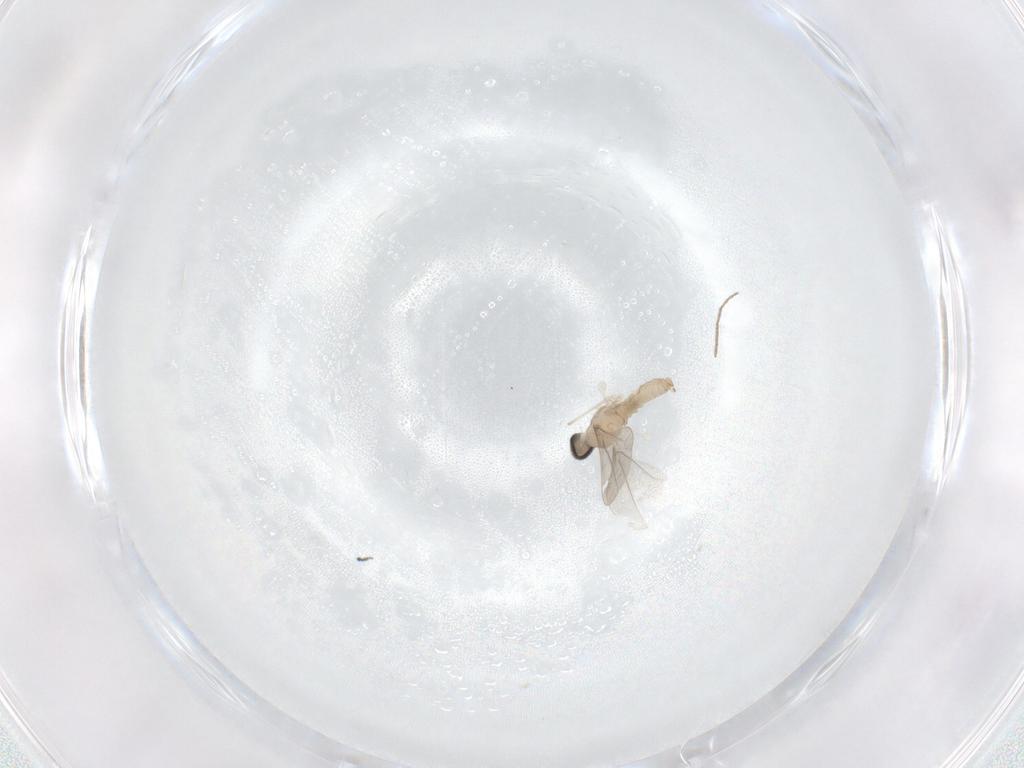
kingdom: Animalia
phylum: Arthropoda
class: Insecta
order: Diptera
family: Cecidomyiidae
